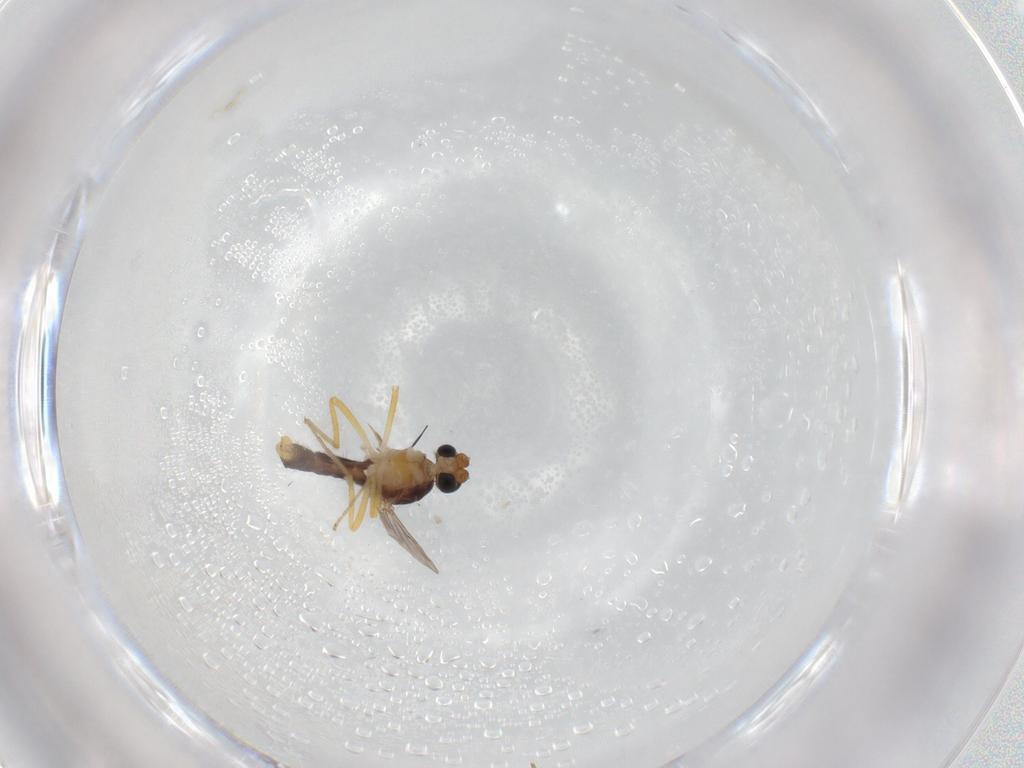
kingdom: Animalia
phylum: Arthropoda
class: Insecta
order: Diptera
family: Ceratopogonidae
